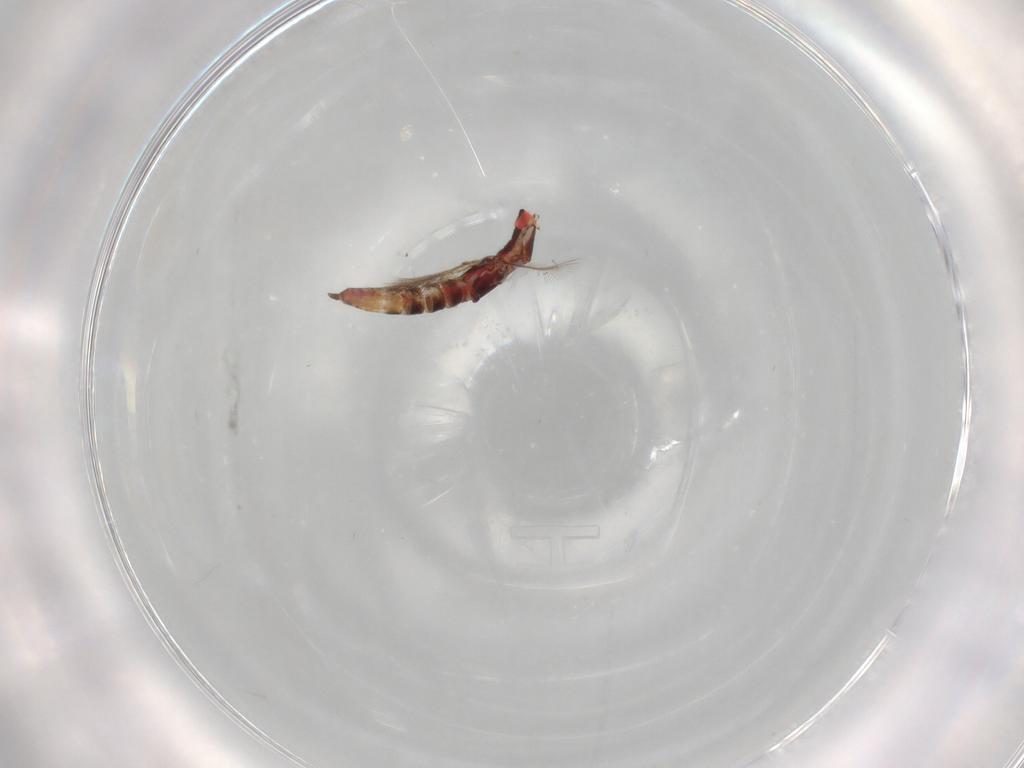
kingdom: Animalia
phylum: Arthropoda
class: Insecta
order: Thysanoptera
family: Phlaeothripidae
